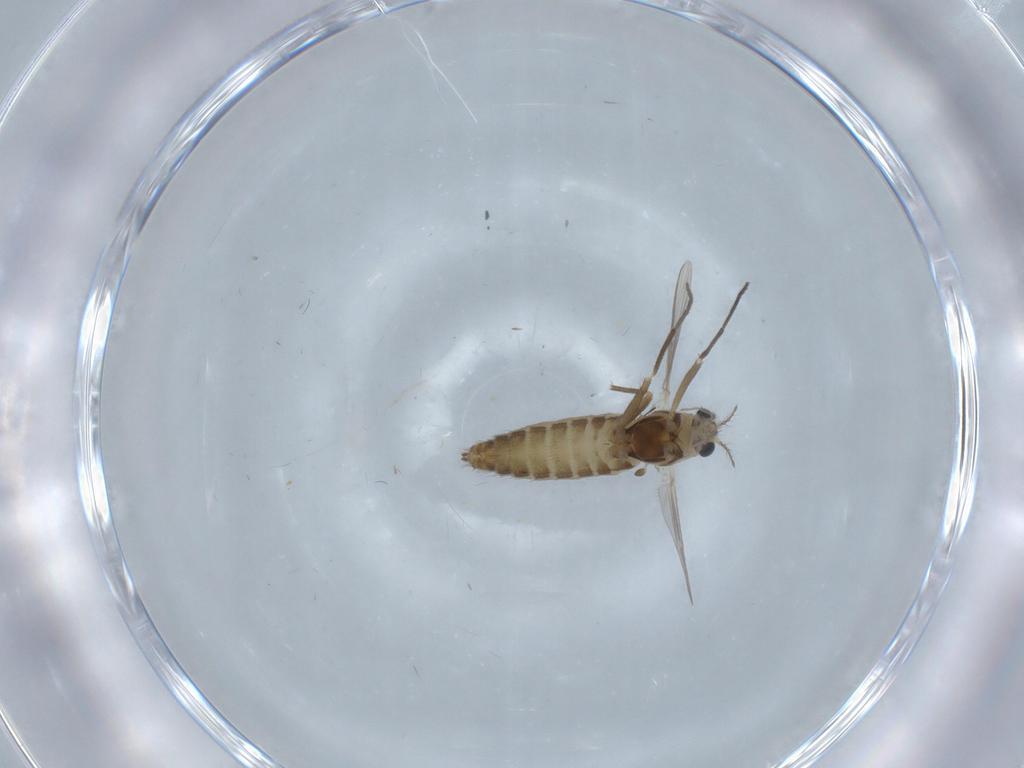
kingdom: Animalia
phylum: Arthropoda
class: Insecta
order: Diptera
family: Chironomidae
